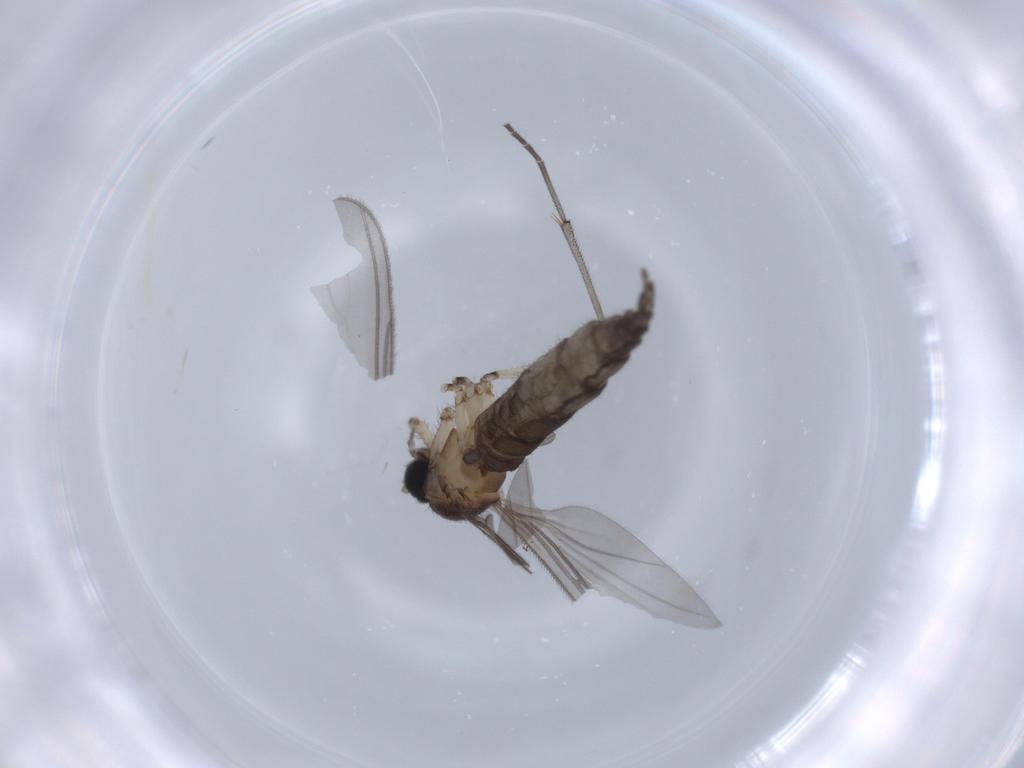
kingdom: Animalia
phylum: Arthropoda
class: Insecta
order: Diptera
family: Sciaridae
